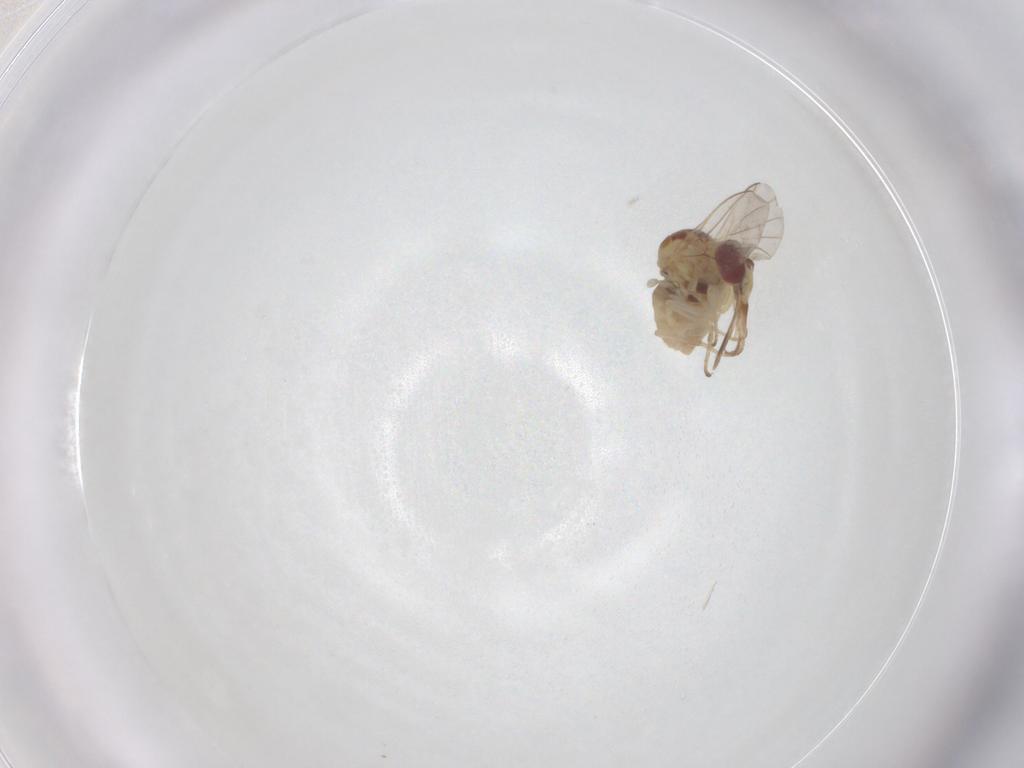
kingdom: Animalia
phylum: Arthropoda
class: Insecta
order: Diptera
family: Bombyliidae
